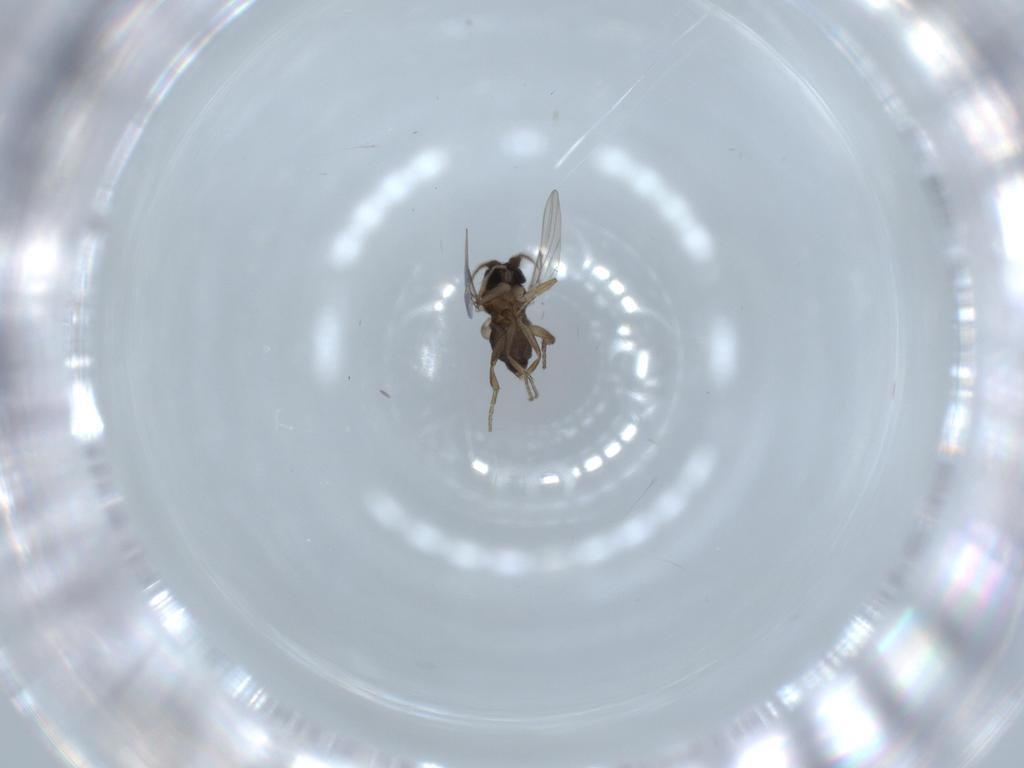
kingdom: Animalia
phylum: Arthropoda
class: Insecta
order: Diptera
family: Phoridae
